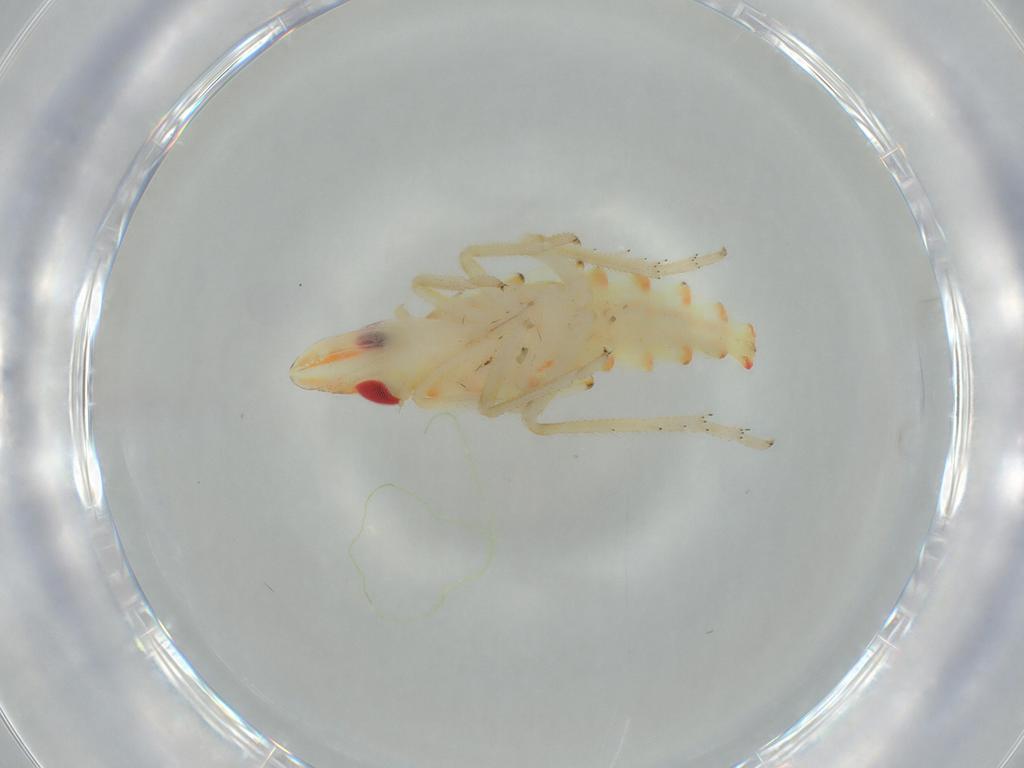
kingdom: Animalia
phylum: Arthropoda
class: Insecta
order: Hemiptera
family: Tropiduchidae
